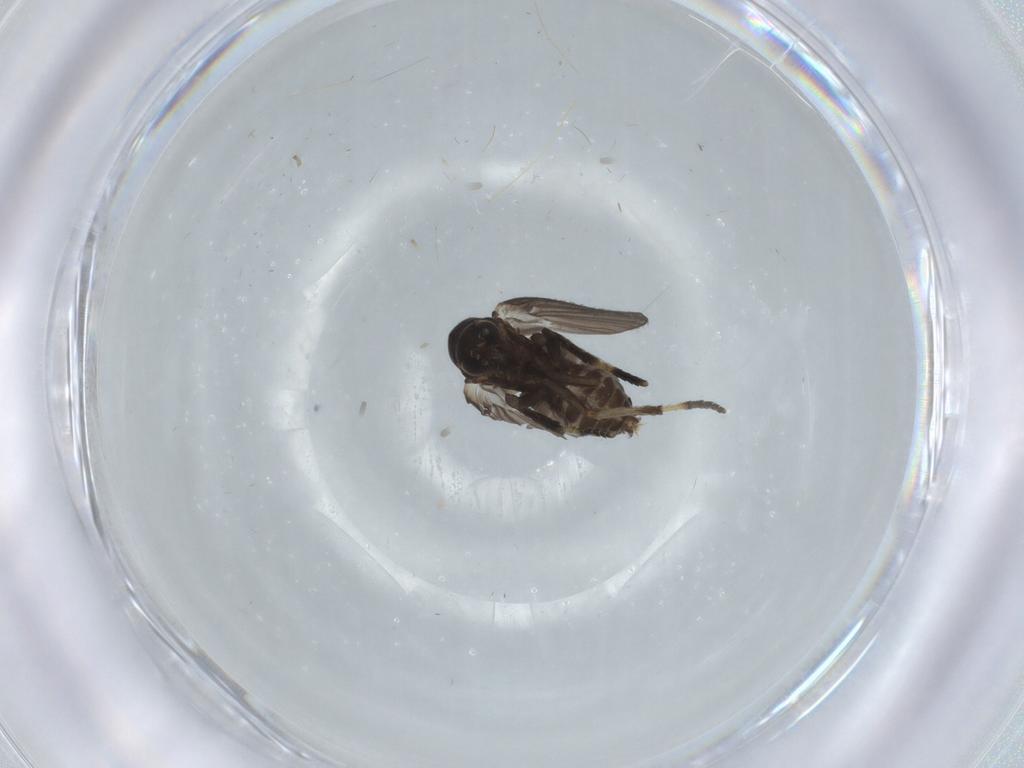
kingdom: Animalia
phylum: Arthropoda
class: Insecta
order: Diptera
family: Psychodidae
